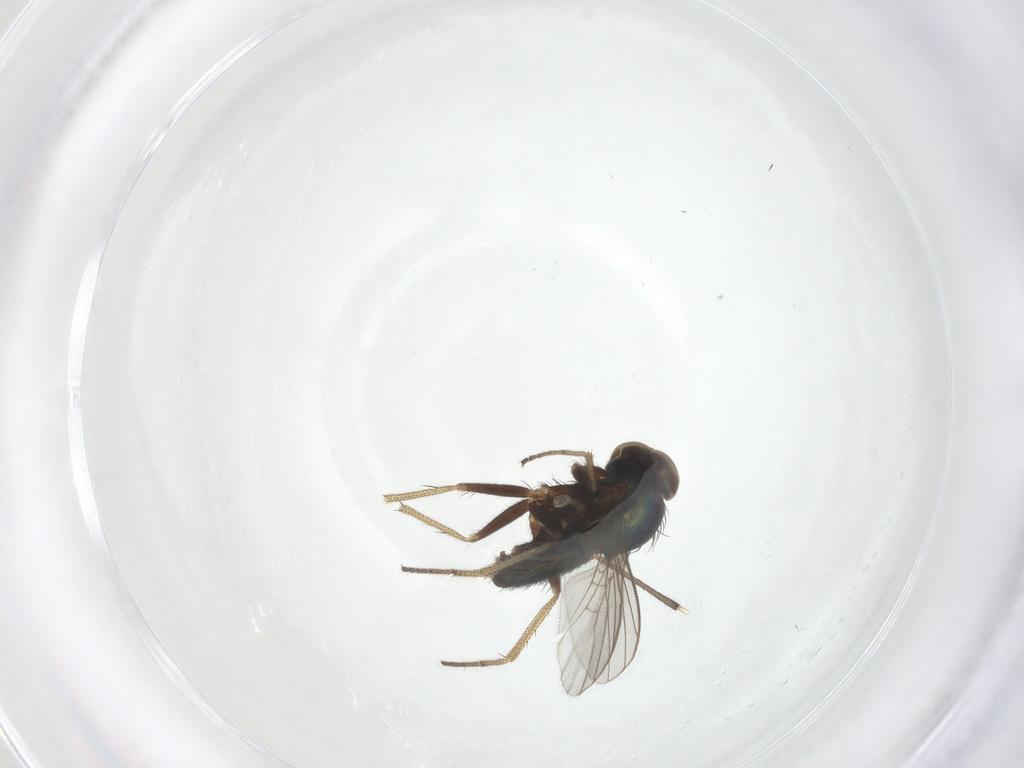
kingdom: Animalia
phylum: Arthropoda
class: Insecta
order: Diptera
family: Dolichopodidae
